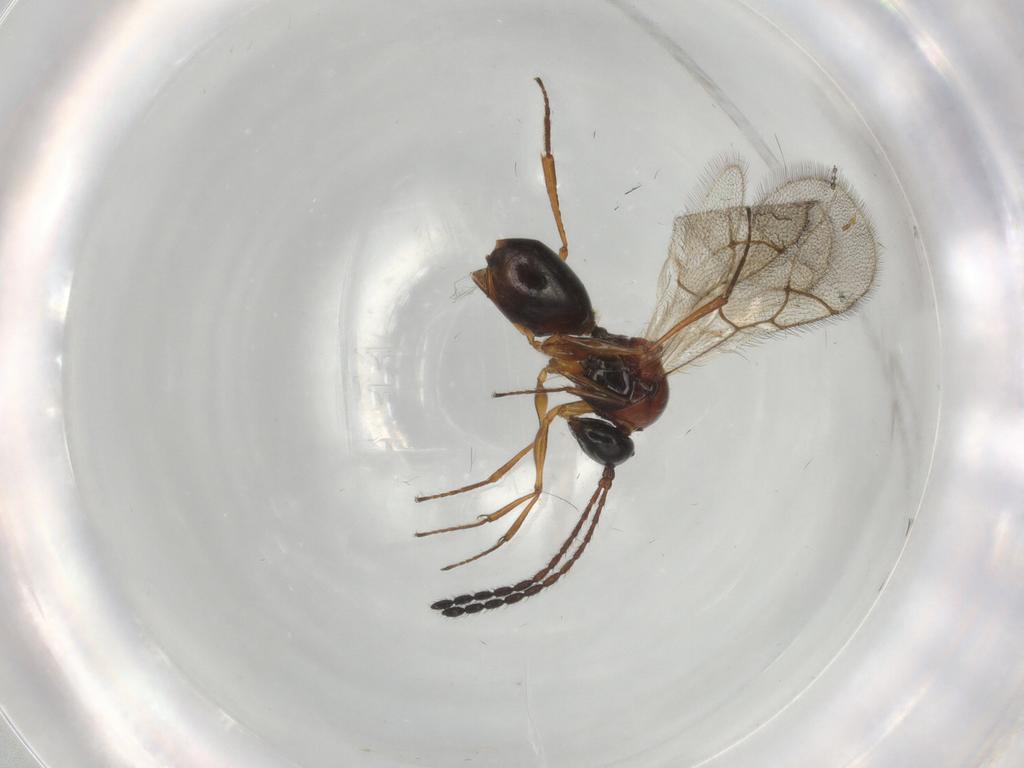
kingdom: Animalia
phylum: Arthropoda
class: Insecta
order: Hymenoptera
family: Figitidae
